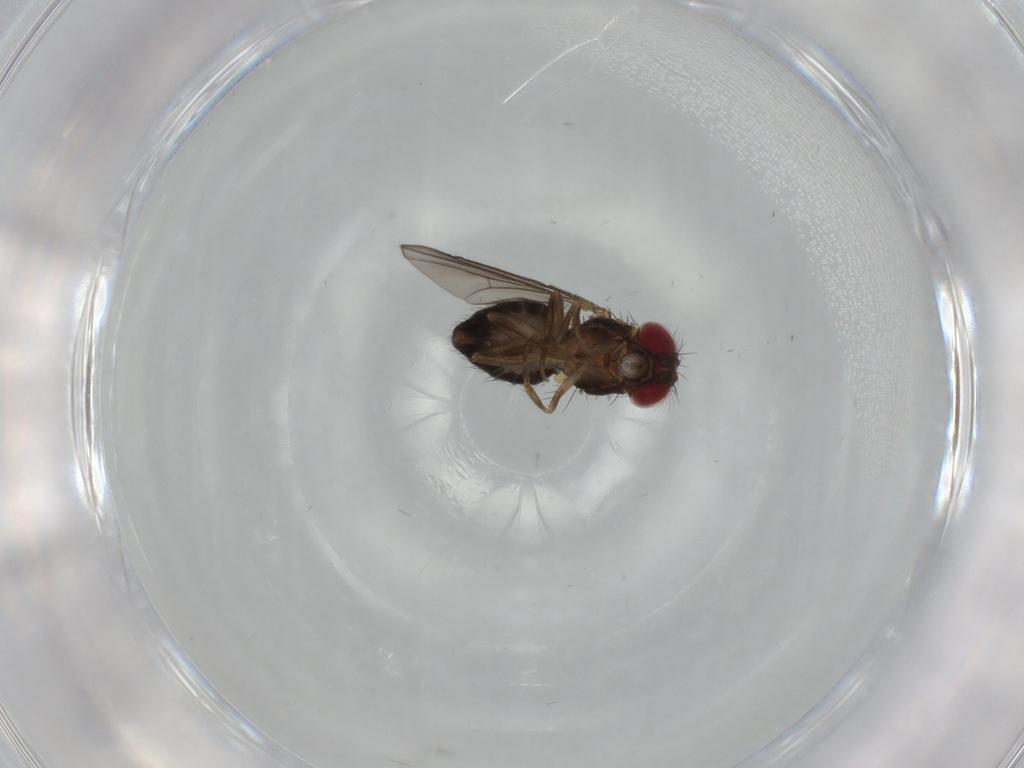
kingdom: Animalia
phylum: Arthropoda
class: Insecta
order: Diptera
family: Drosophilidae
